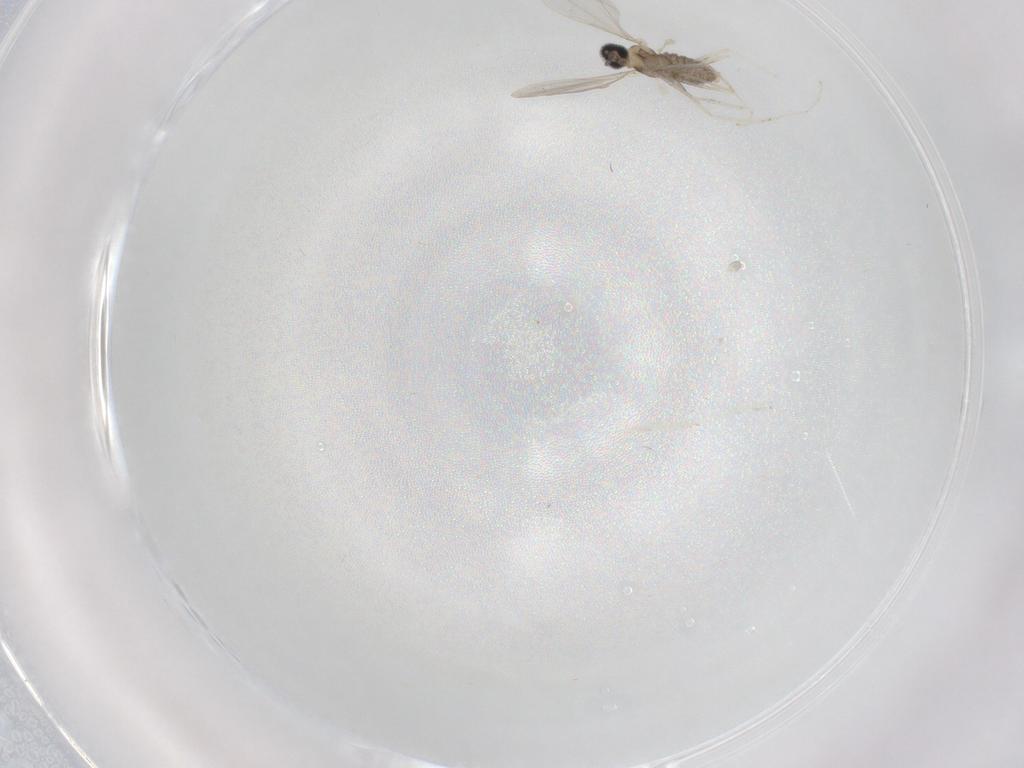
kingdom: Animalia
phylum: Arthropoda
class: Insecta
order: Diptera
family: Cecidomyiidae
